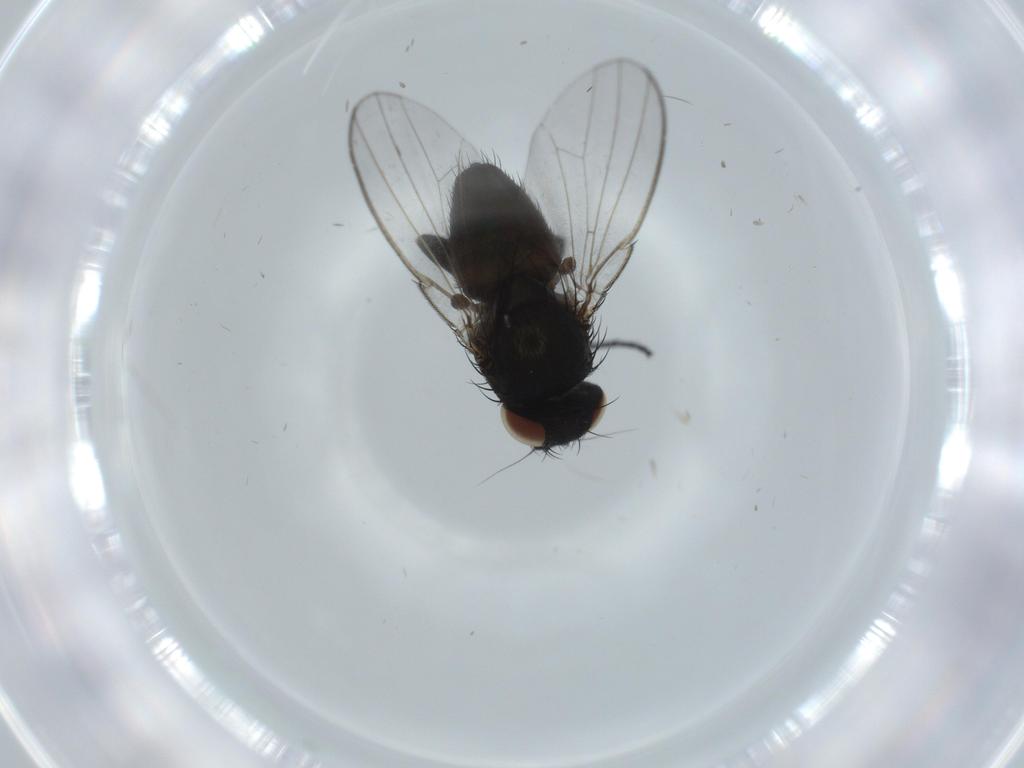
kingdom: Animalia
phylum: Arthropoda
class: Insecta
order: Diptera
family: Milichiidae
